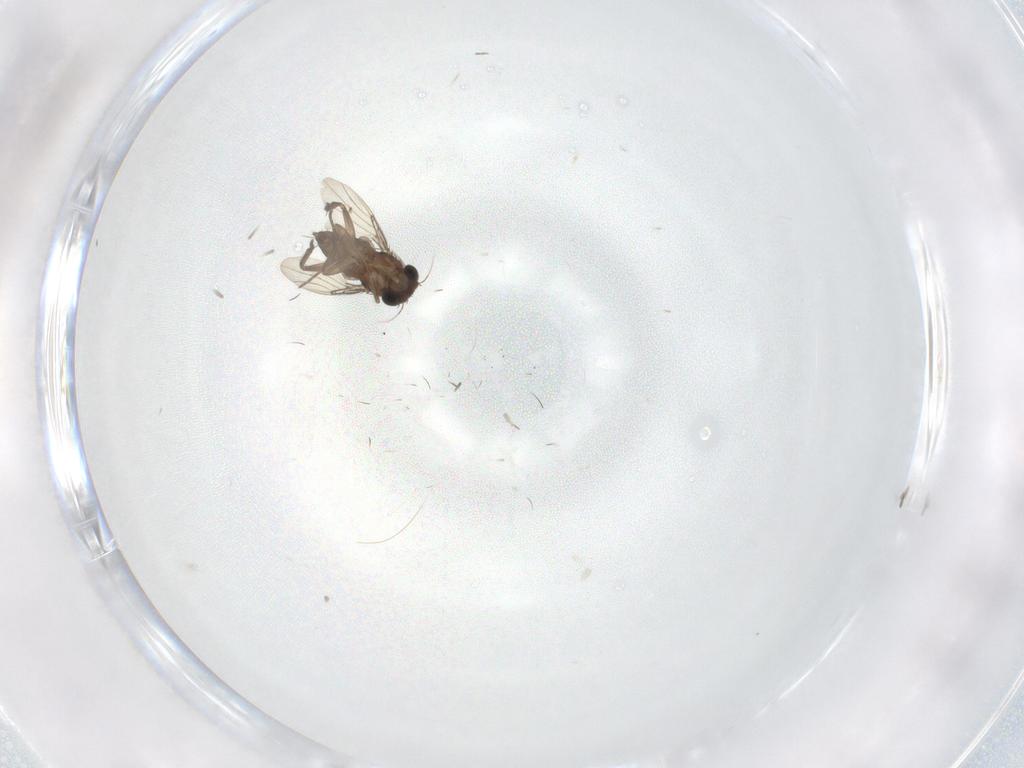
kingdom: Animalia
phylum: Arthropoda
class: Insecta
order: Diptera
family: Phoridae
